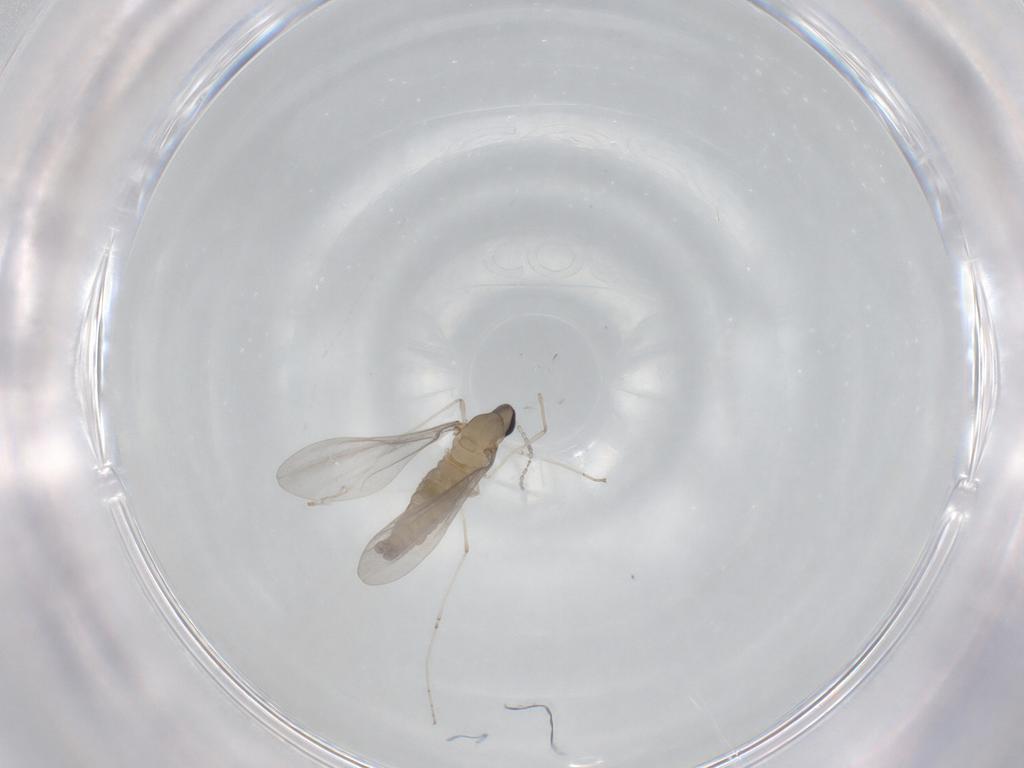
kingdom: Animalia
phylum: Arthropoda
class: Insecta
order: Diptera
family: Cecidomyiidae
